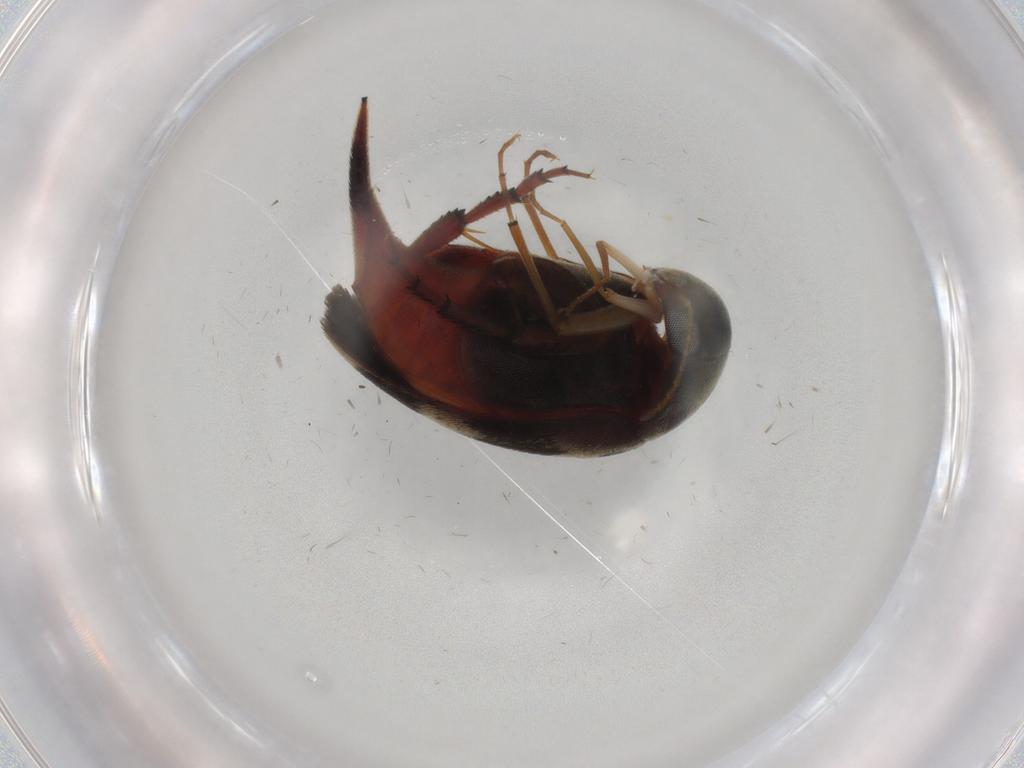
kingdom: Animalia
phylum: Arthropoda
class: Insecta
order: Coleoptera
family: Mordellidae
